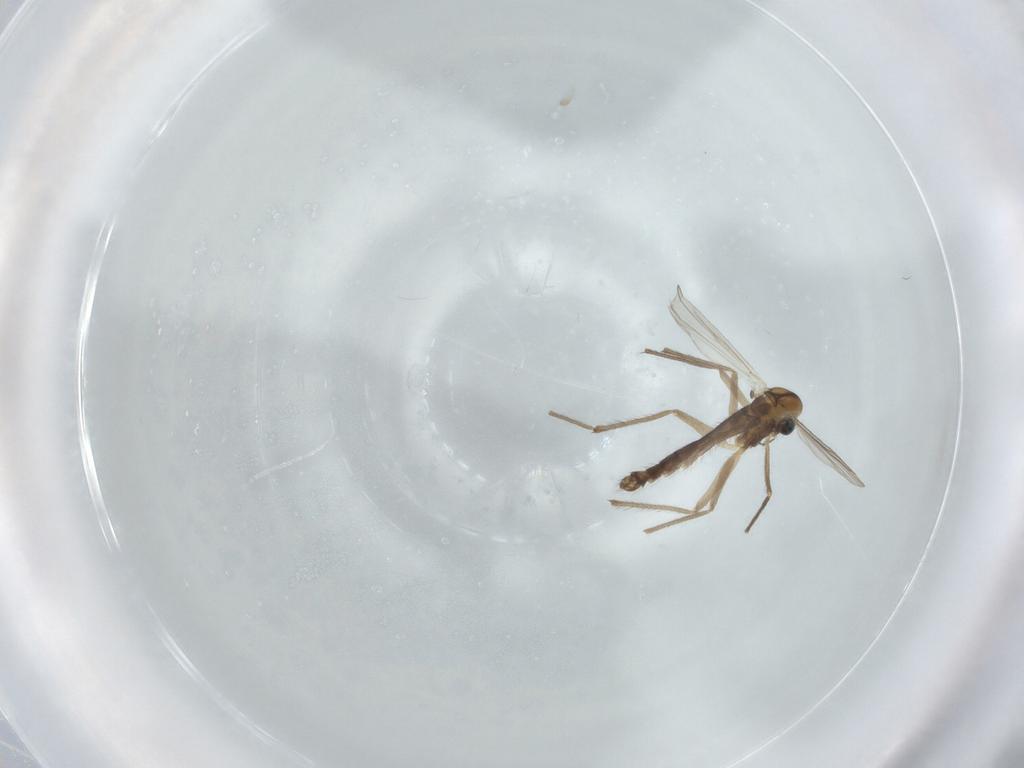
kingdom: Animalia
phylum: Arthropoda
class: Insecta
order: Diptera
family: Chironomidae
